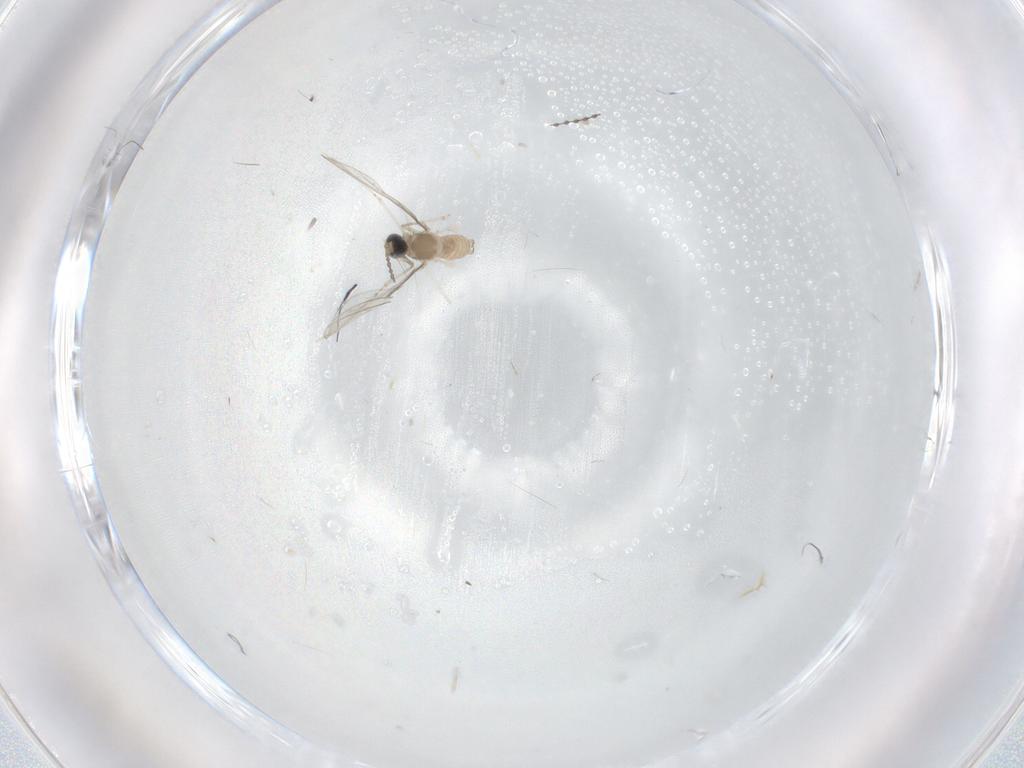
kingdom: Animalia
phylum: Arthropoda
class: Insecta
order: Diptera
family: Cecidomyiidae
